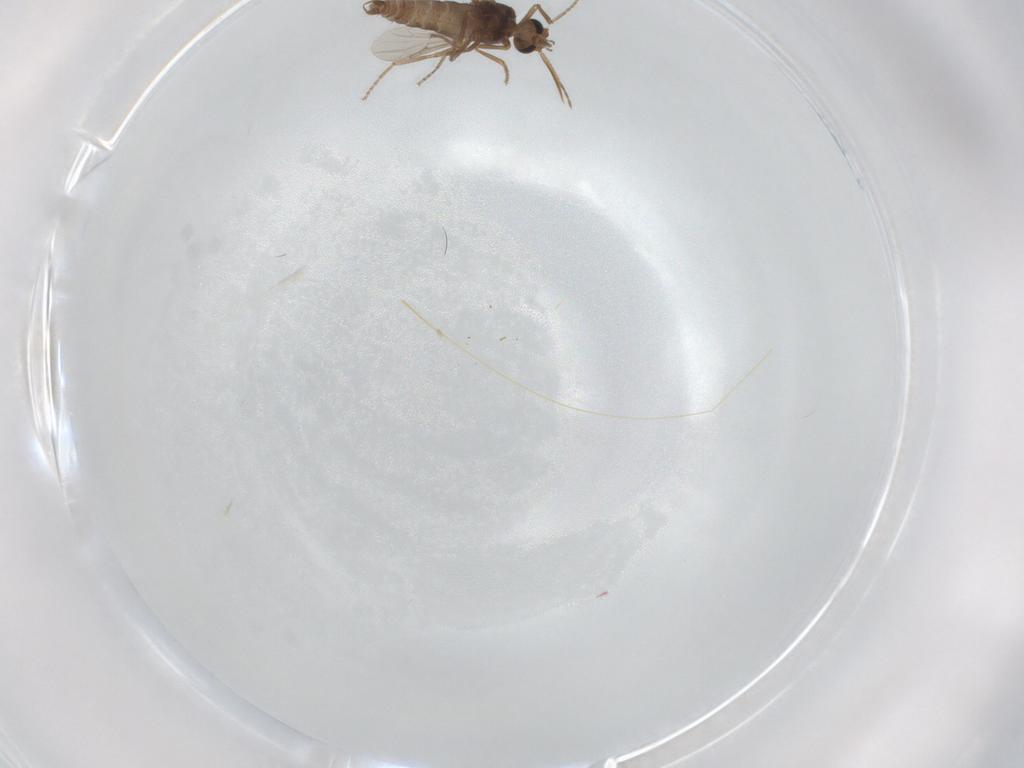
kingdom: Animalia
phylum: Arthropoda
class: Insecta
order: Diptera
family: Ceratopogonidae
